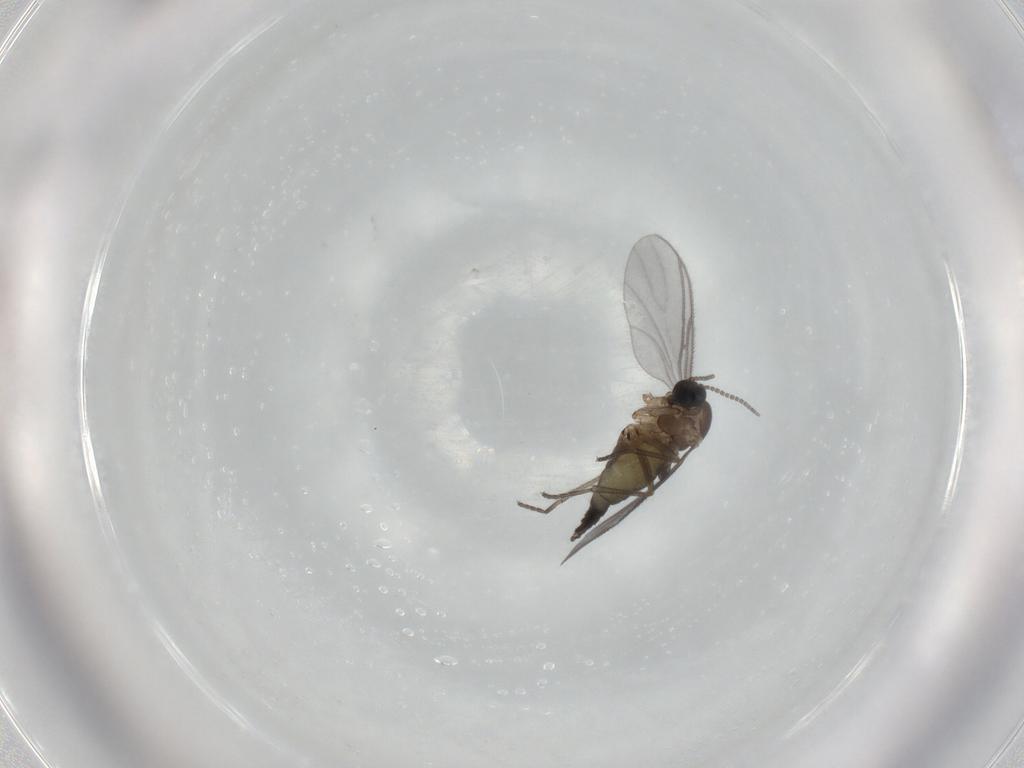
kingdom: Animalia
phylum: Arthropoda
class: Insecta
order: Diptera
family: Sciaridae
